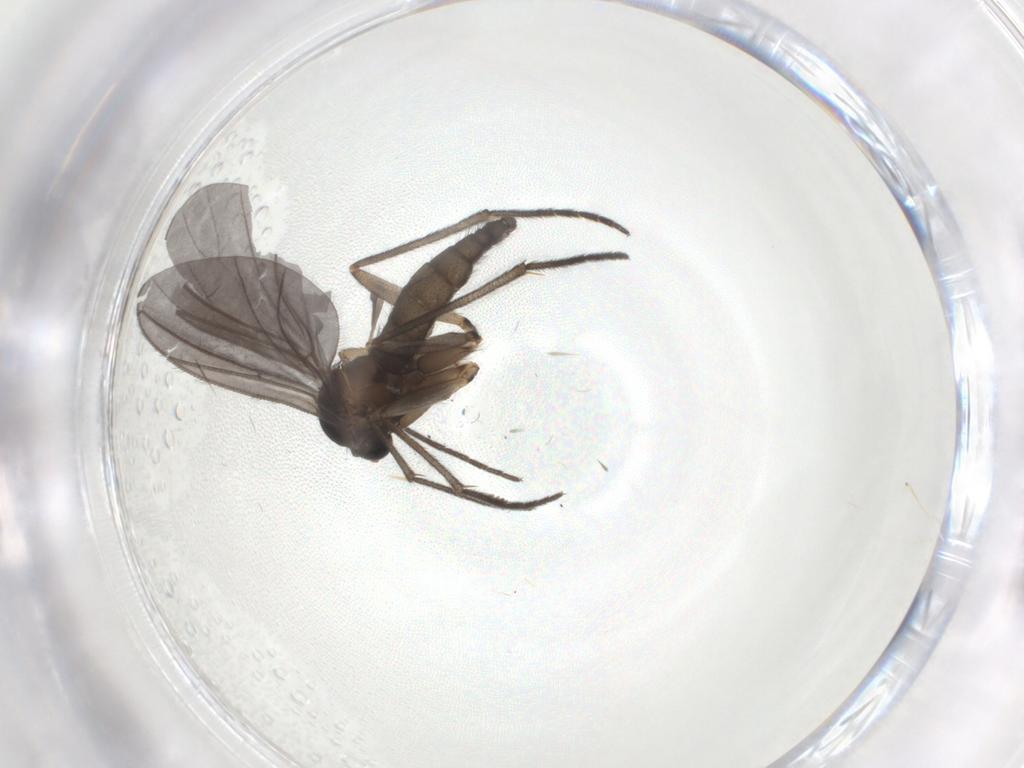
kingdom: Animalia
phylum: Arthropoda
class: Insecta
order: Diptera
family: Sciaridae
